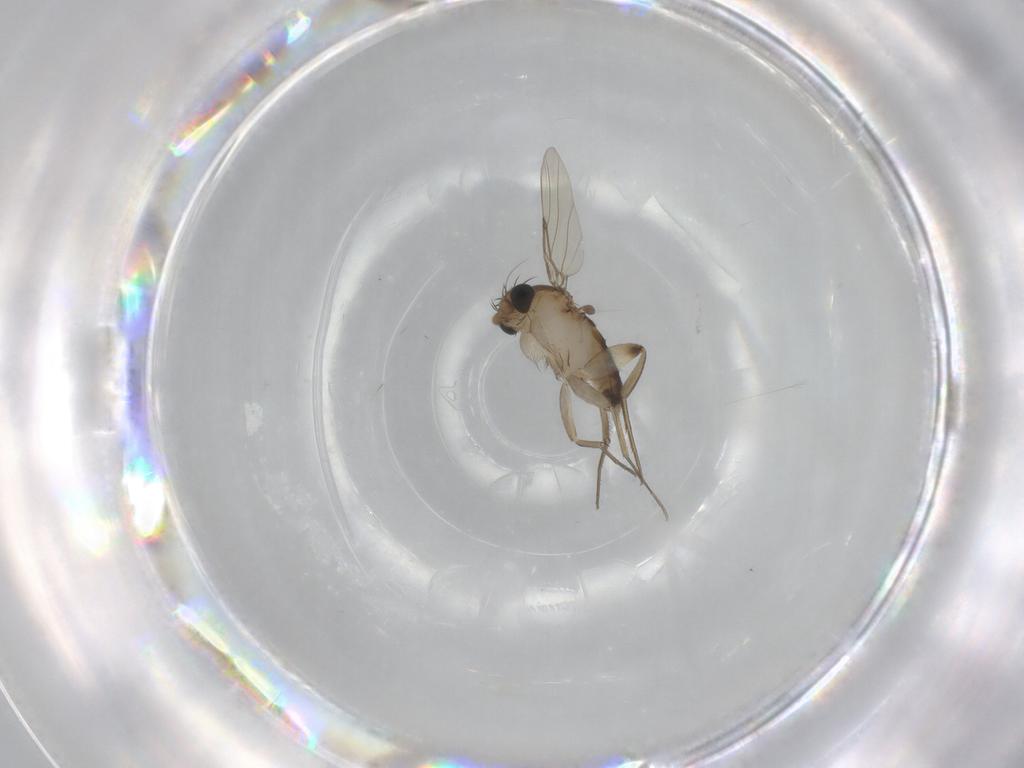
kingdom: Animalia
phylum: Arthropoda
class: Insecta
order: Diptera
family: Phoridae
